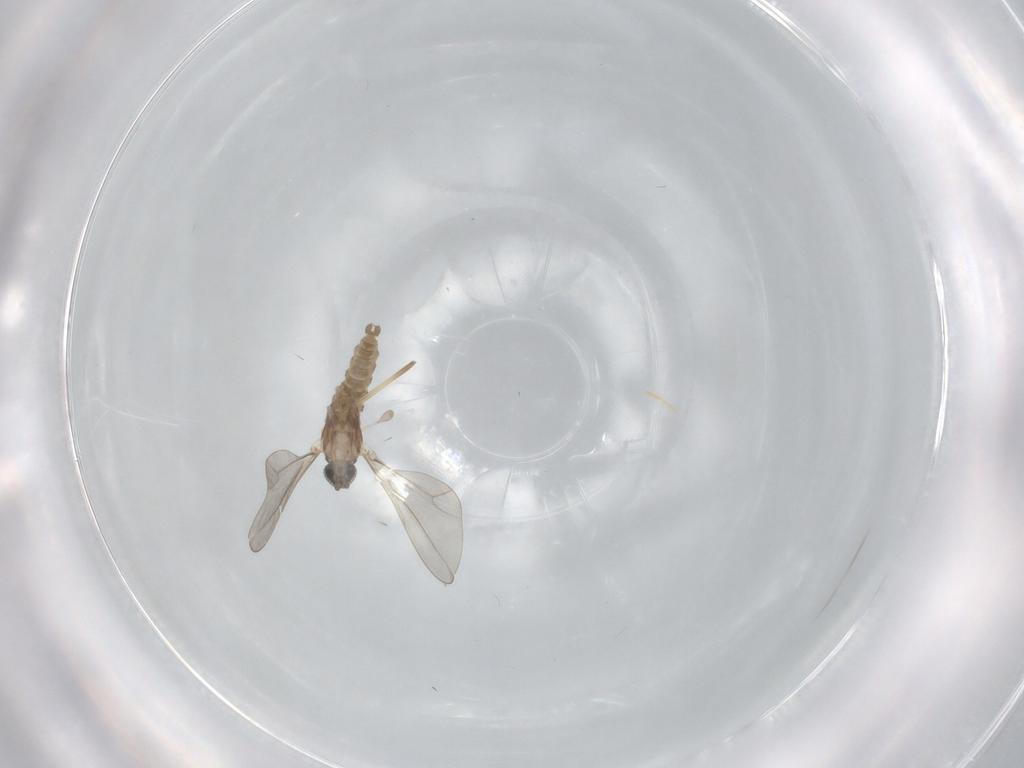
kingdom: Animalia
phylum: Arthropoda
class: Insecta
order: Diptera
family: Cecidomyiidae
